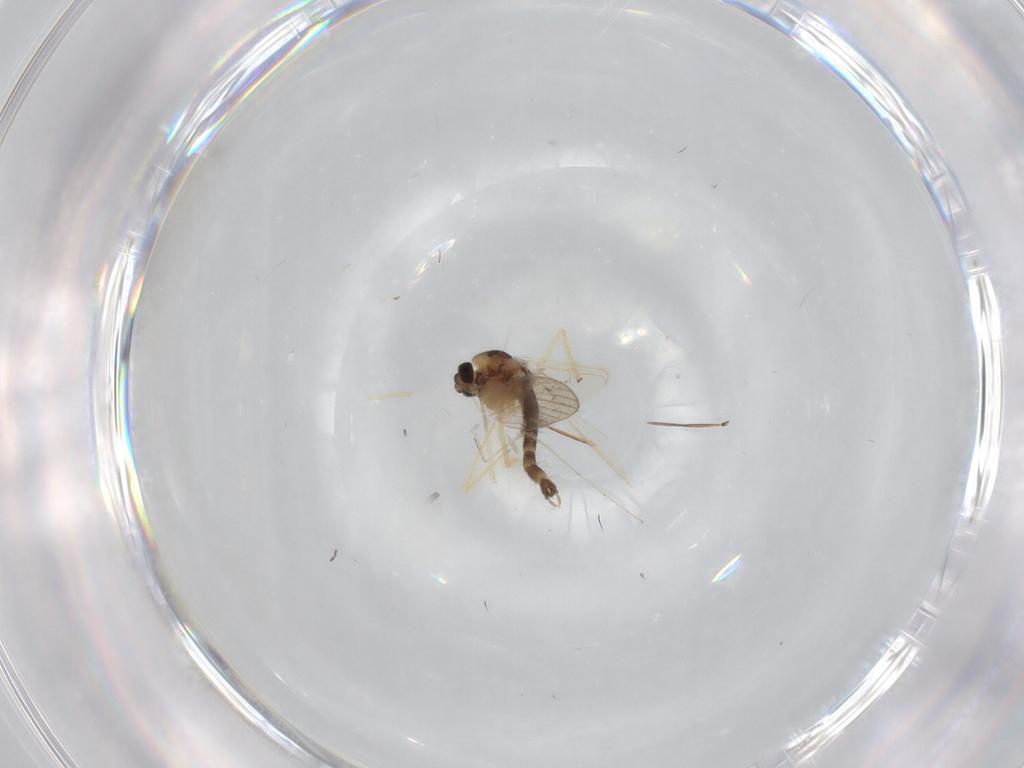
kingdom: Animalia
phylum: Arthropoda
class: Insecta
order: Diptera
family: Chironomidae
